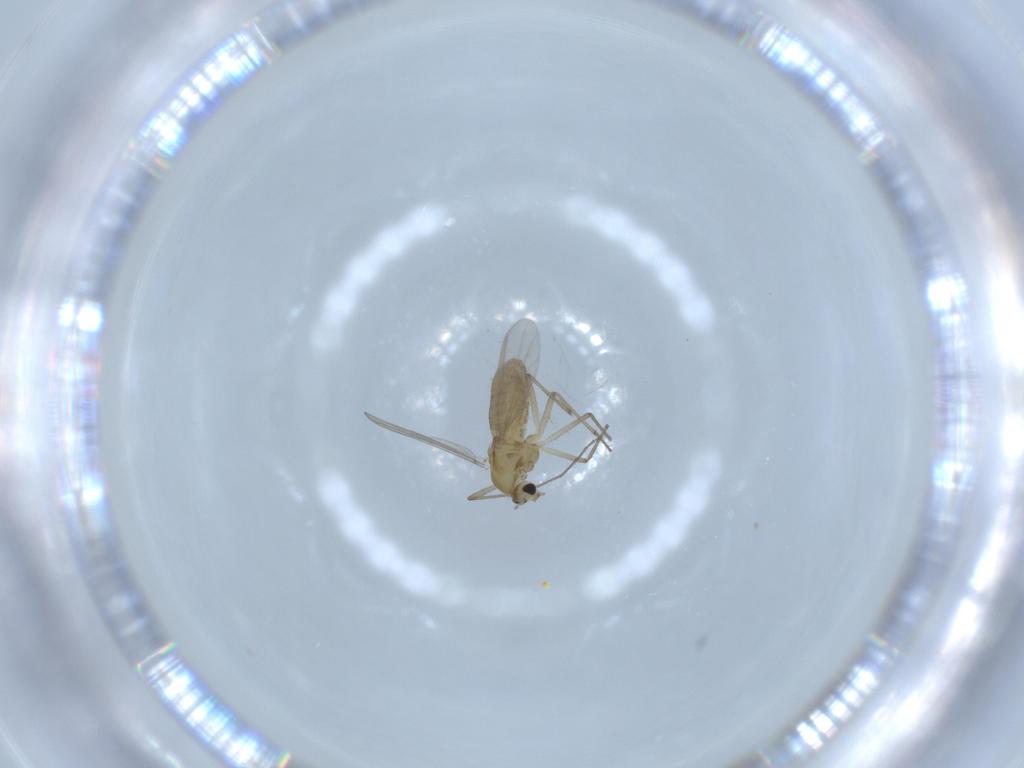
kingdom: Animalia
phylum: Arthropoda
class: Insecta
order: Diptera
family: Chironomidae
